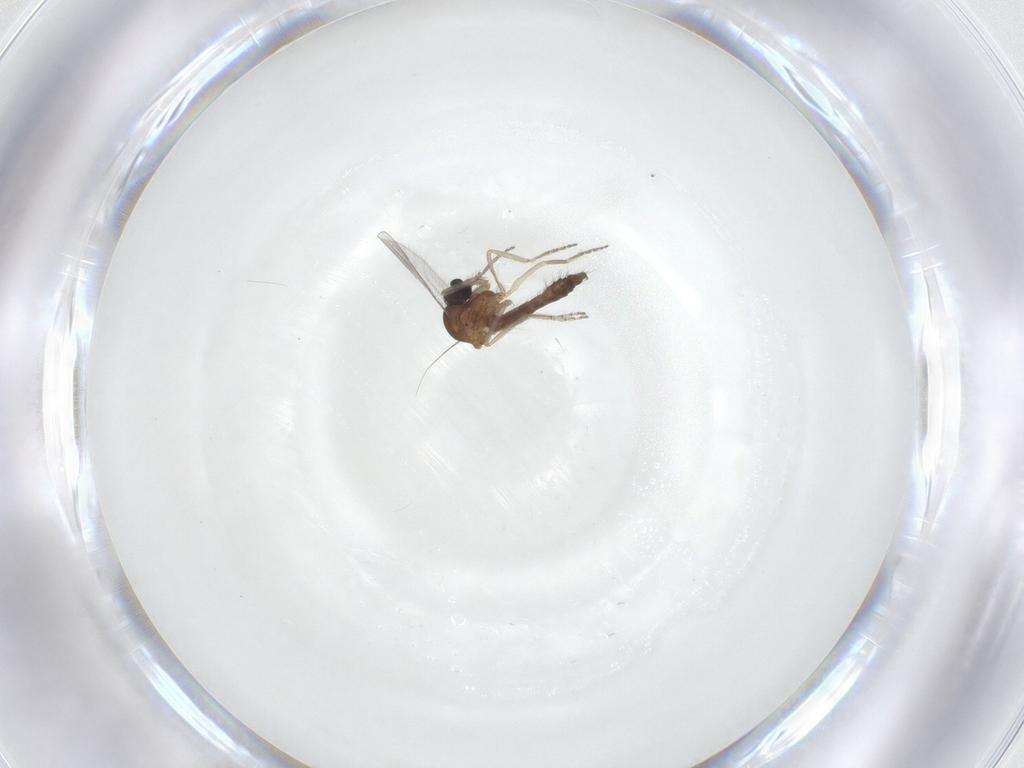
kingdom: Animalia
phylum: Arthropoda
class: Insecta
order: Diptera
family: Ceratopogonidae
